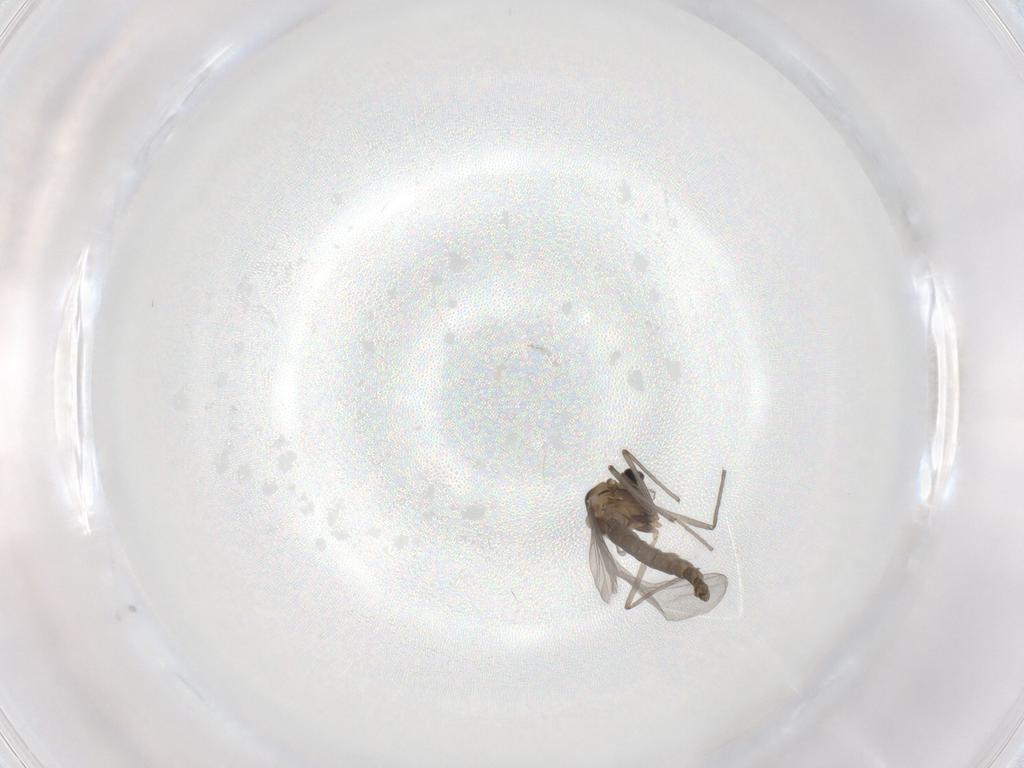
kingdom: Animalia
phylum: Arthropoda
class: Insecta
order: Diptera
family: Chironomidae
